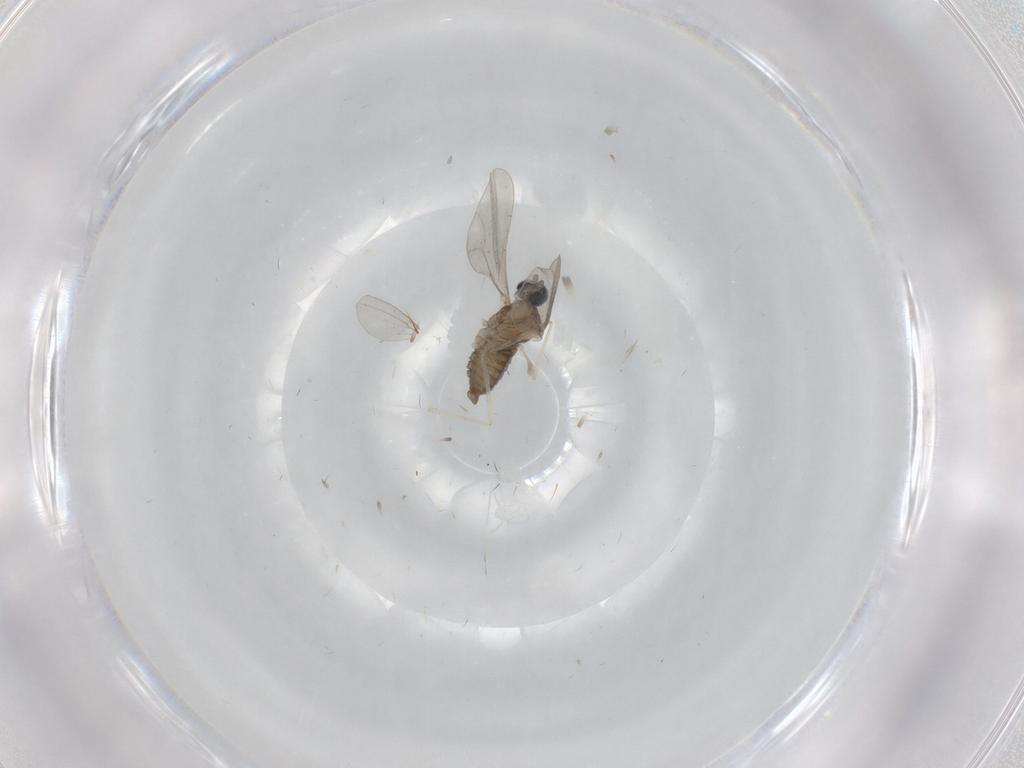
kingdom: Animalia
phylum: Arthropoda
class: Insecta
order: Diptera
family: Cecidomyiidae
